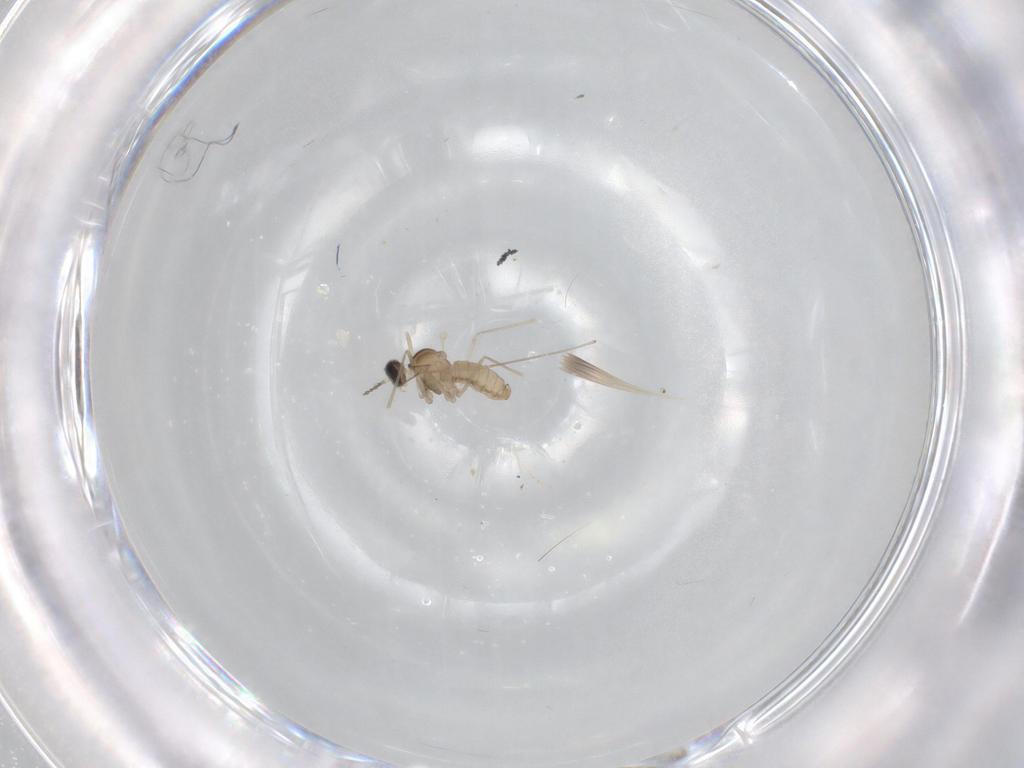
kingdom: Animalia
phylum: Arthropoda
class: Insecta
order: Diptera
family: Cecidomyiidae
